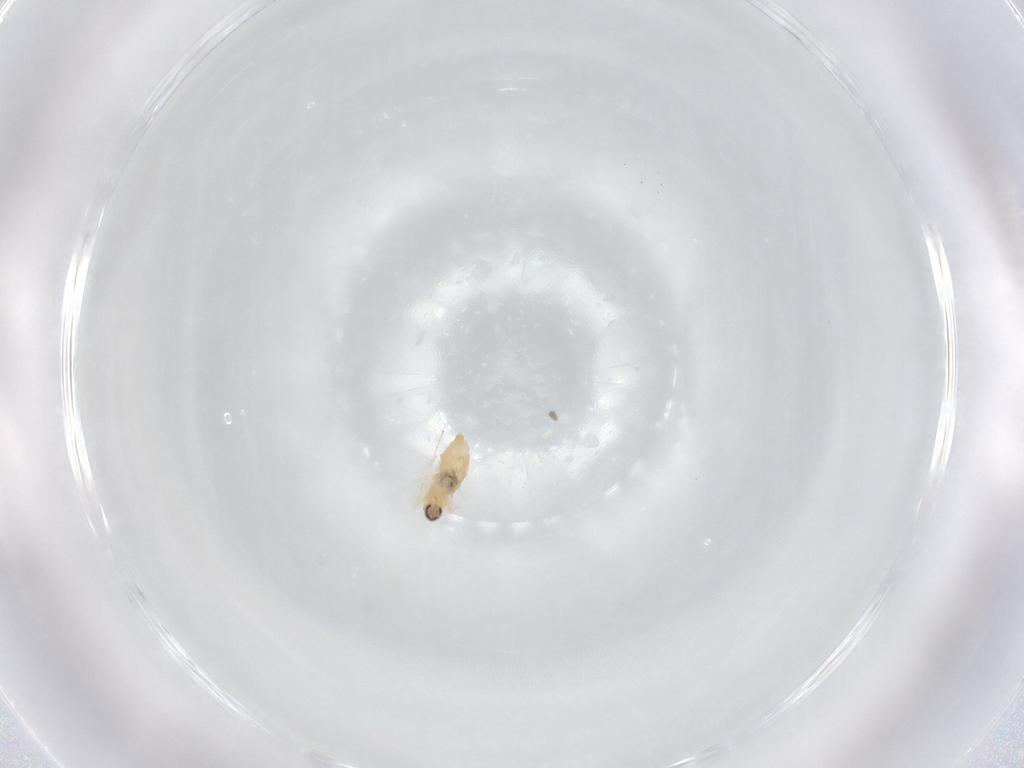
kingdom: Animalia
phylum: Arthropoda
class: Insecta
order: Diptera
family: Cecidomyiidae
